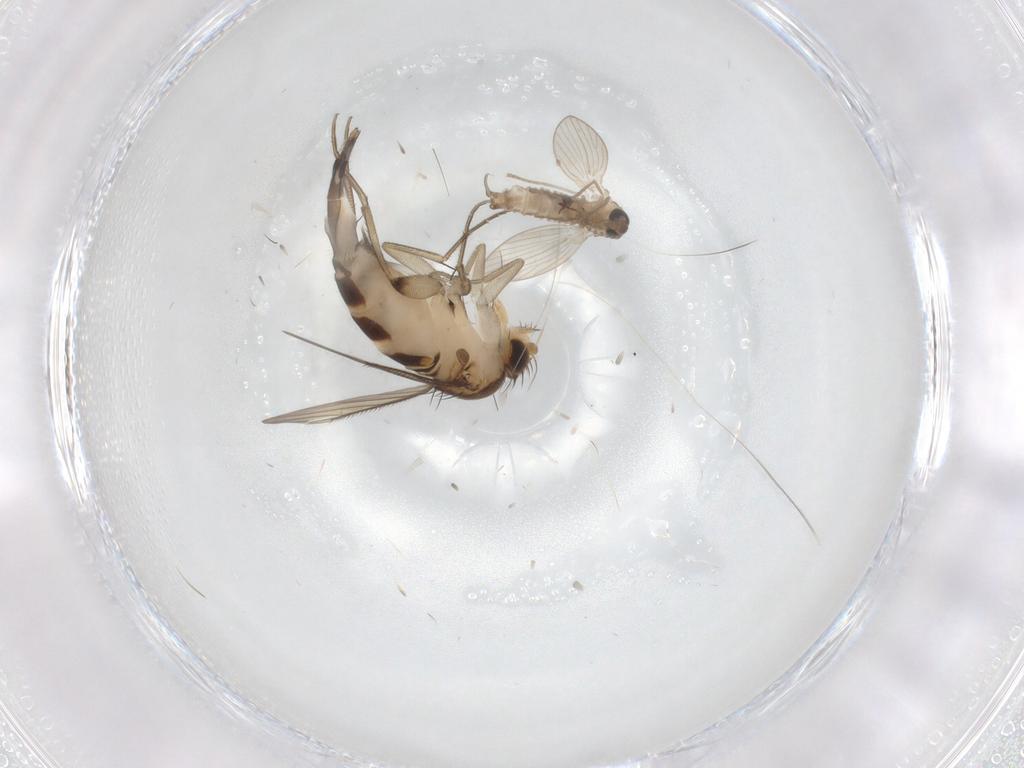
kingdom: Animalia
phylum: Arthropoda
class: Insecta
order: Diptera
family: Phoridae
